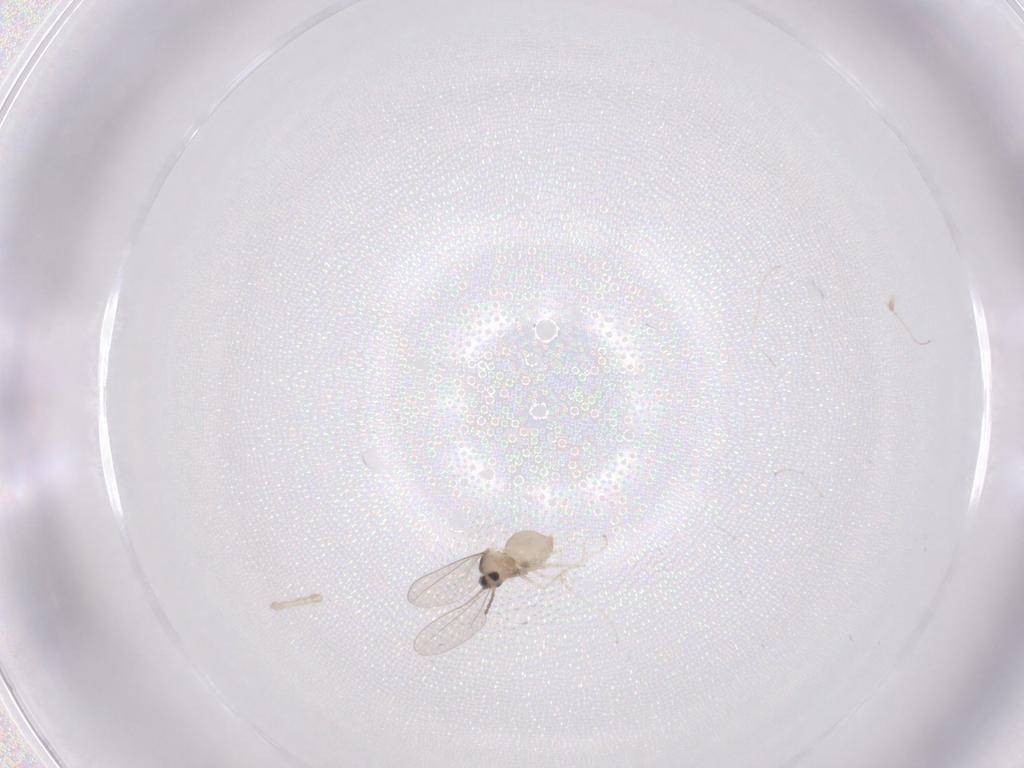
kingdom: Animalia
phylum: Arthropoda
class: Insecta
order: Diptera
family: Cecidomyiidae
